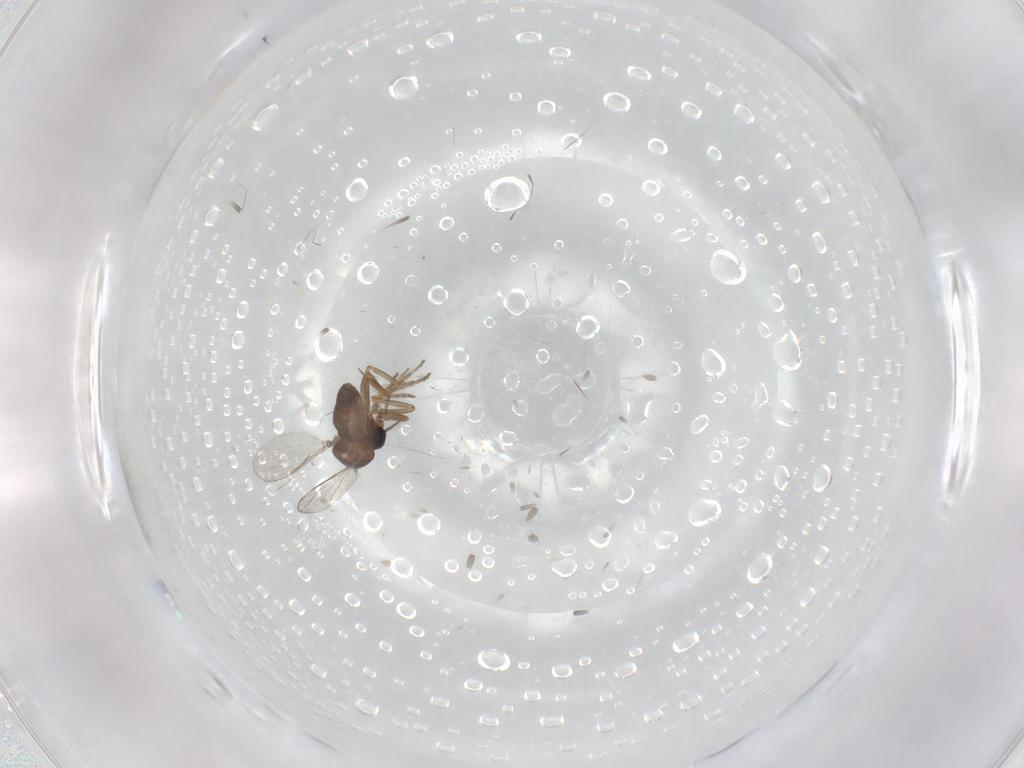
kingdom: Animalia
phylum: Arthropoda
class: Insecta
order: Diptera
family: Ceratopogonidae
